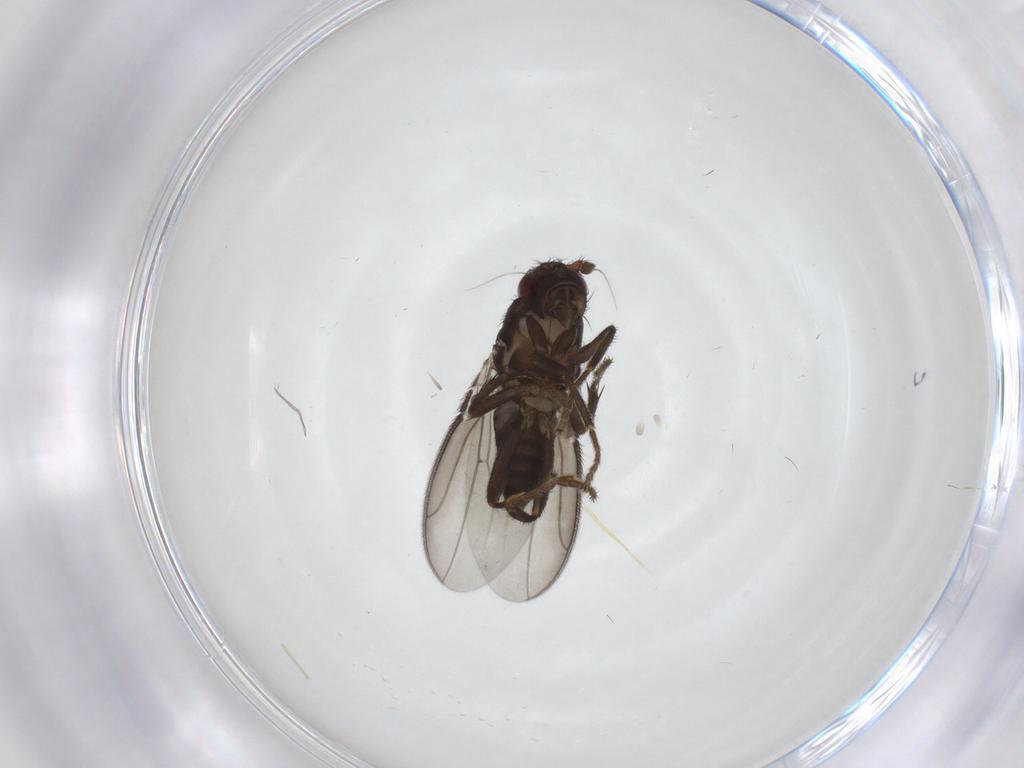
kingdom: Animalia
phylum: Arthropoda
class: Insecta
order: Diptera
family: Sphaeroceridae
